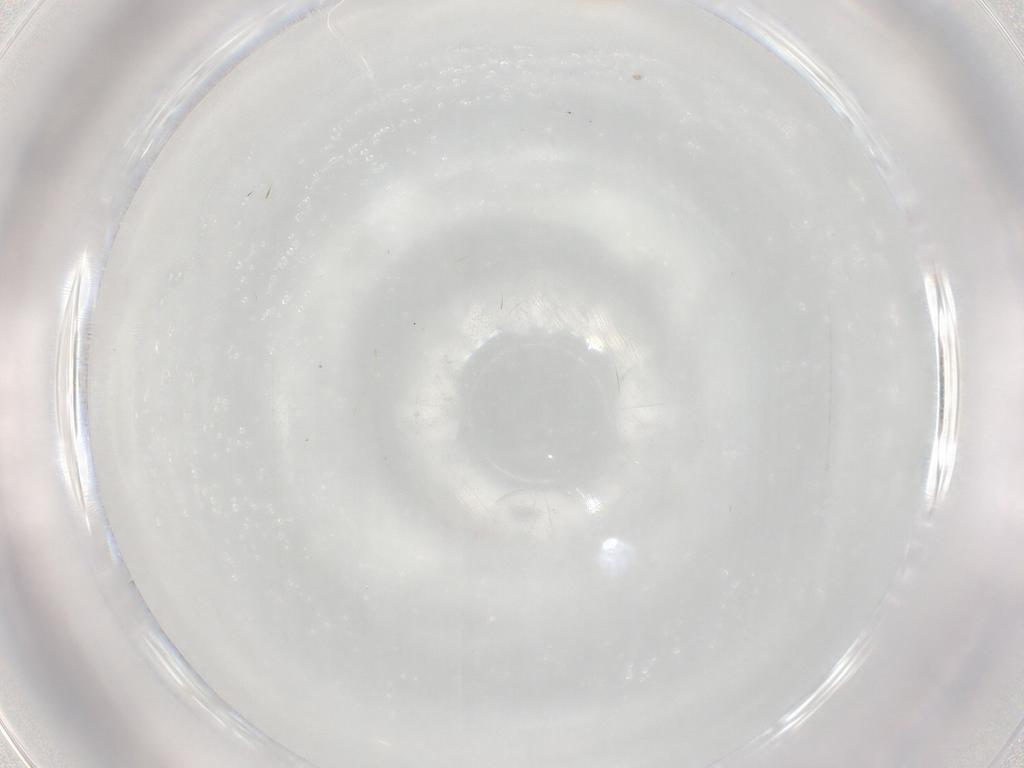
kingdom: Animalia
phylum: Arthropoda
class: Insecta
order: Hemiptera
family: Aleyrodidae
